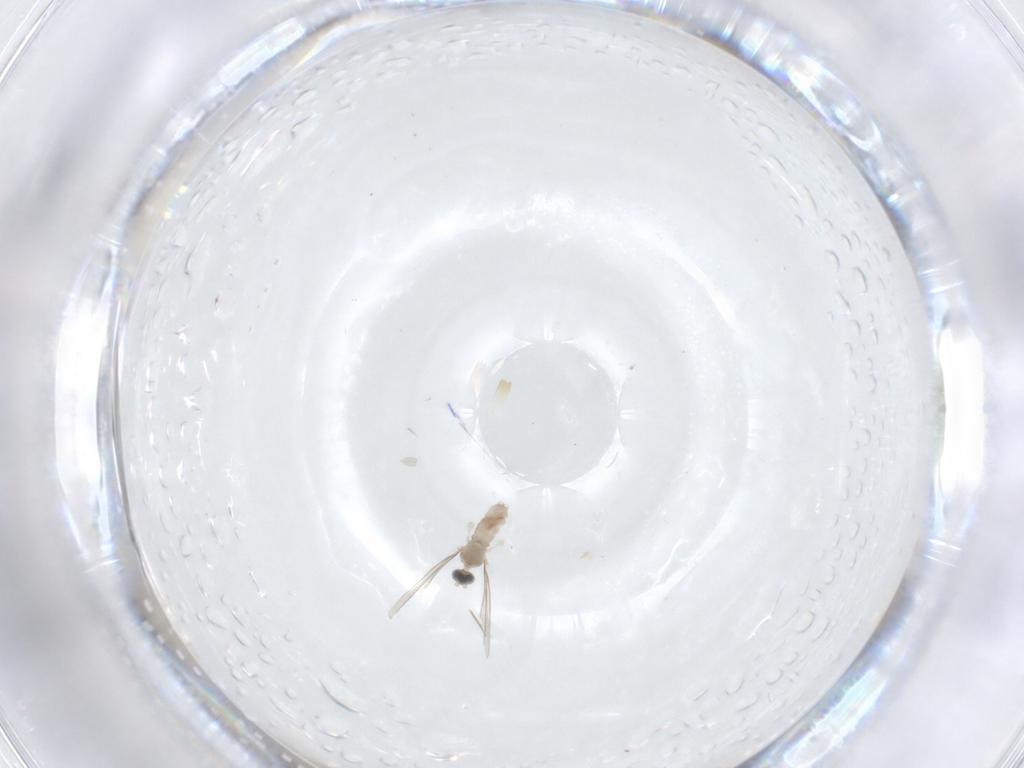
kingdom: Animalia
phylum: Arthropoda
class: Insecta
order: Diptera
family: Cecidomyiidae
